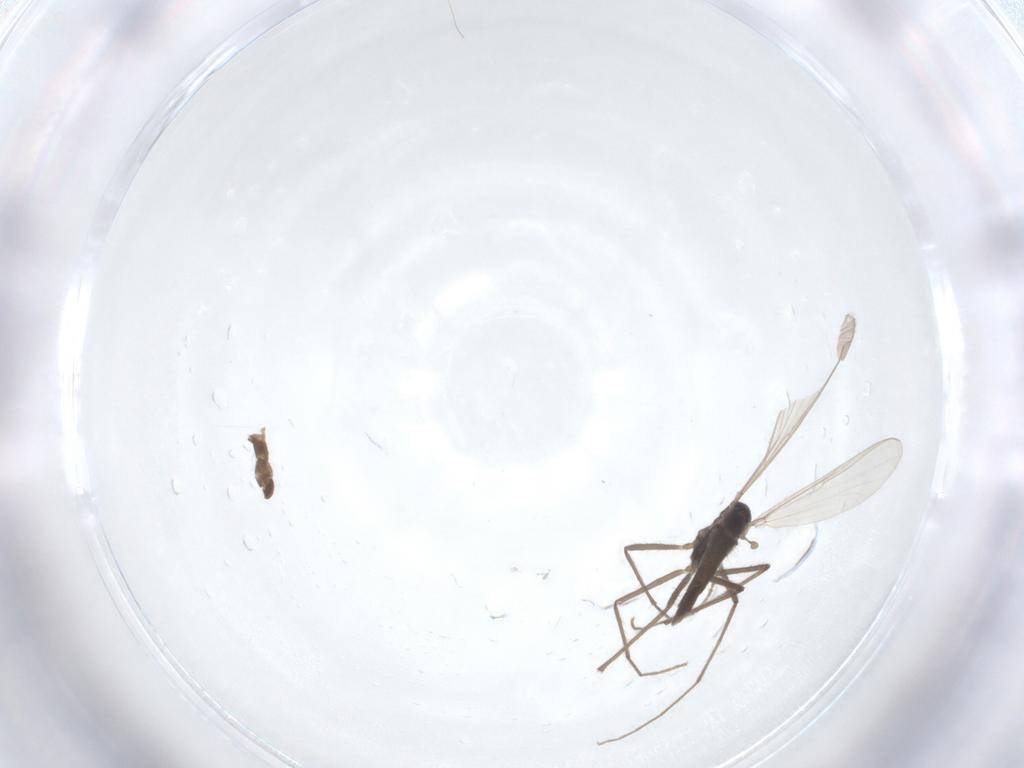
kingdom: Animalia
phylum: Arthropoda
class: Insecta
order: Diptera
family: Chironomidae
